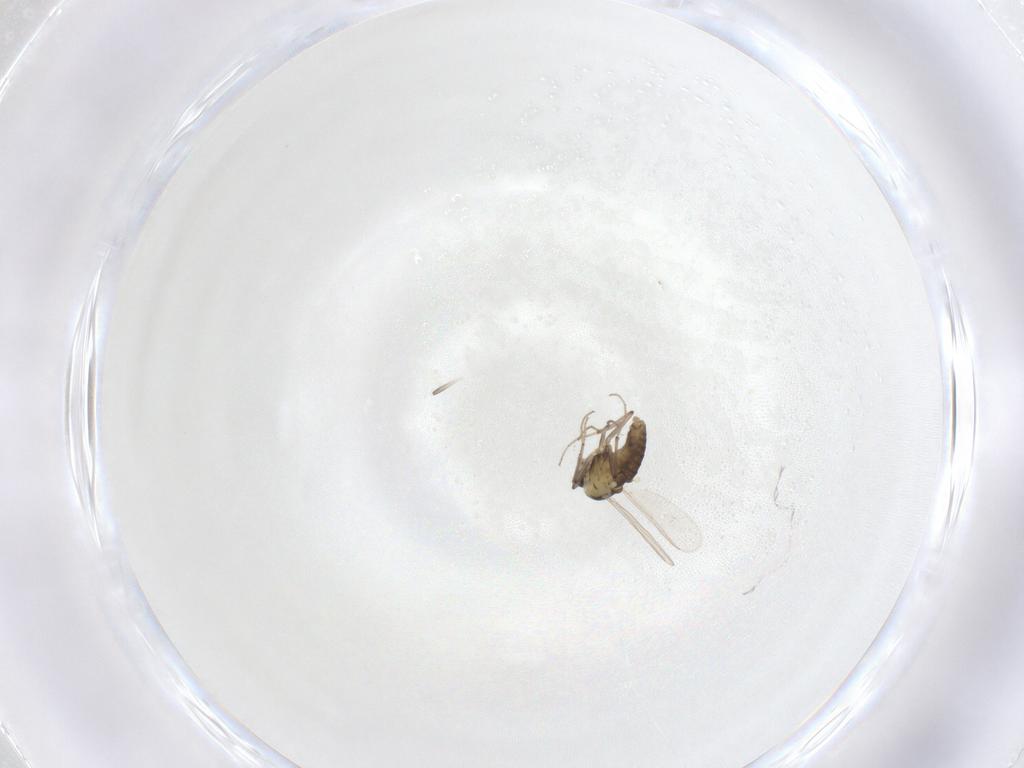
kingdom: Animalia
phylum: Arthropoda
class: Insecta
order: Diptera
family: Chironomidae
